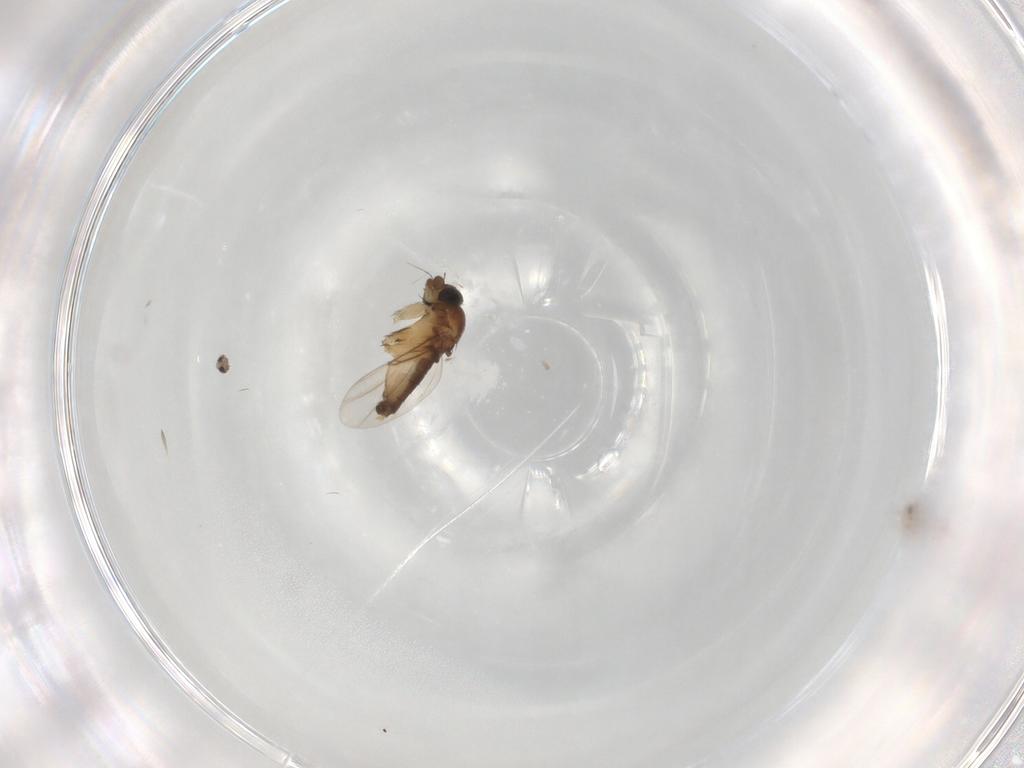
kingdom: Animalia
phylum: Arthropoda
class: Insecta
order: Diptera
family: Phoridae
